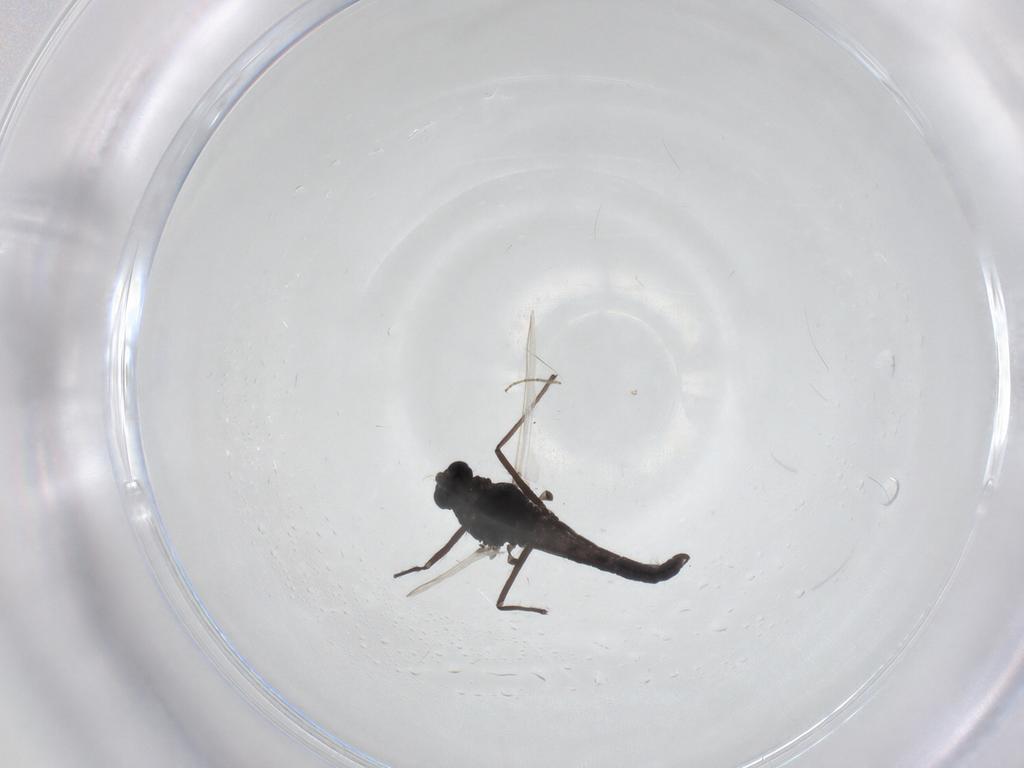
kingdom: Animalia
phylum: Arthropoda
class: Insecta
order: Diptera
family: Chironomidae
